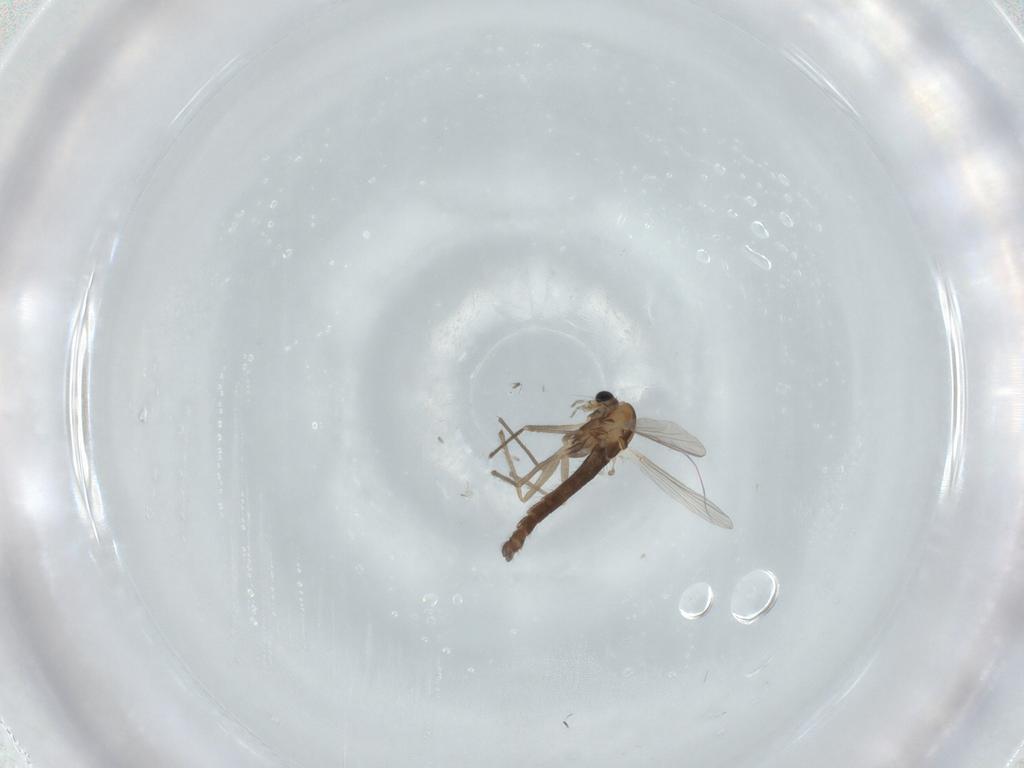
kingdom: Animalia
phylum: Arthropoda
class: Insecta
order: Diptera
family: Chironomidae
